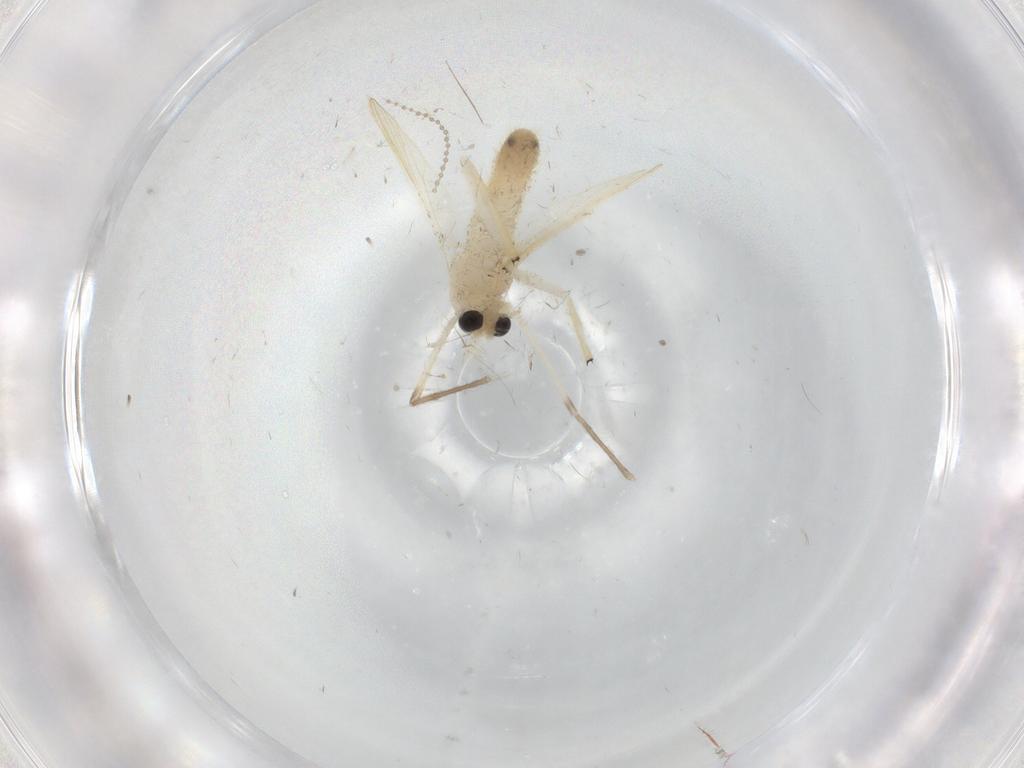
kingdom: Animalia
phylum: Arthropoda
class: Insecta
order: Diptera
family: Chironomidae
